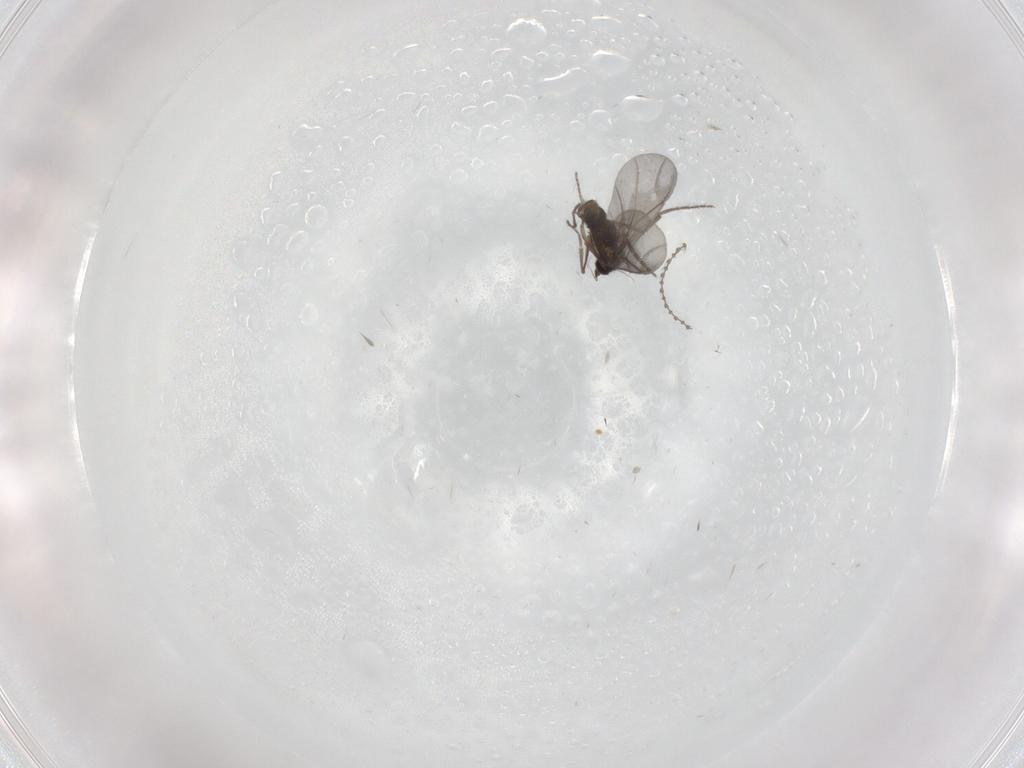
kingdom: Animalia
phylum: Arthropoda
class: Insecta
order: Diptera
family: Phoridae
